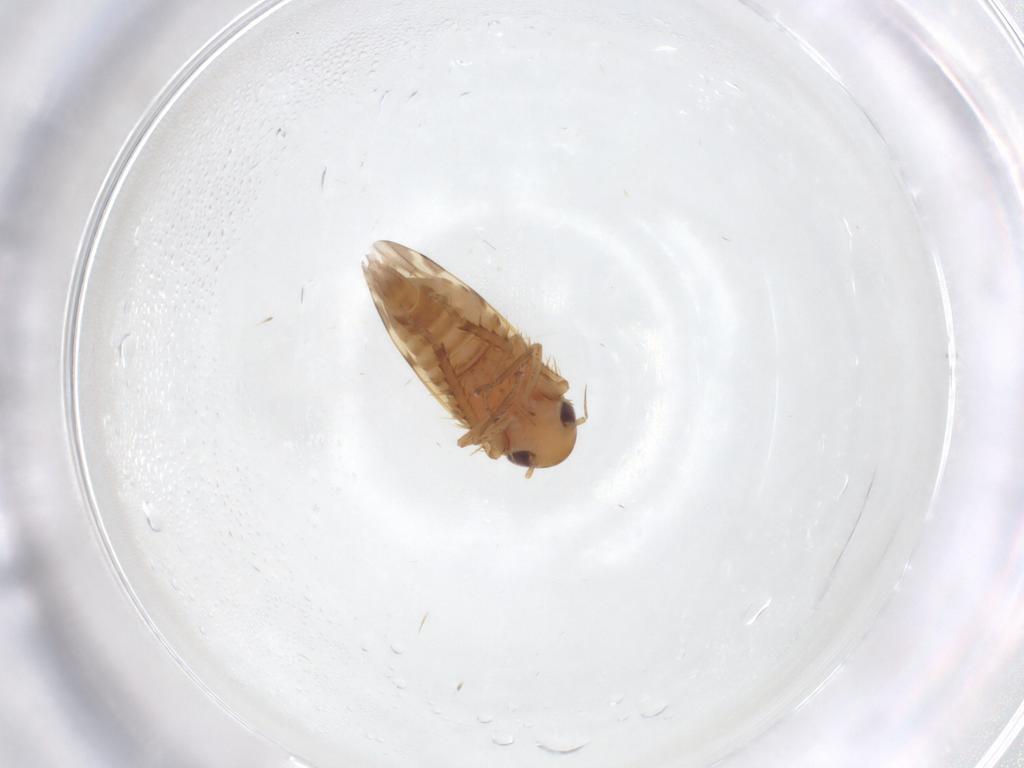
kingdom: Animalia
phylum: Arthropoda
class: Insecta
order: Hemiptera
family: Cicadellidae
